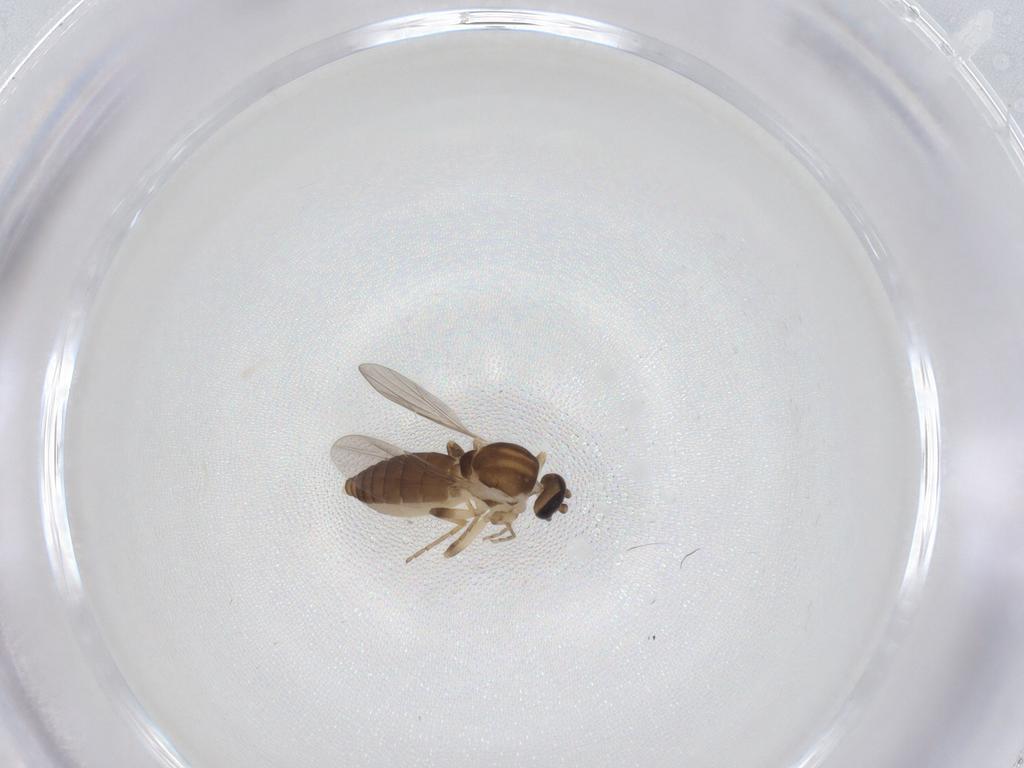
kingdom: Animalia
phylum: Arthropoda
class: Insecta
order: Diptera
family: Ceratopogonidae
